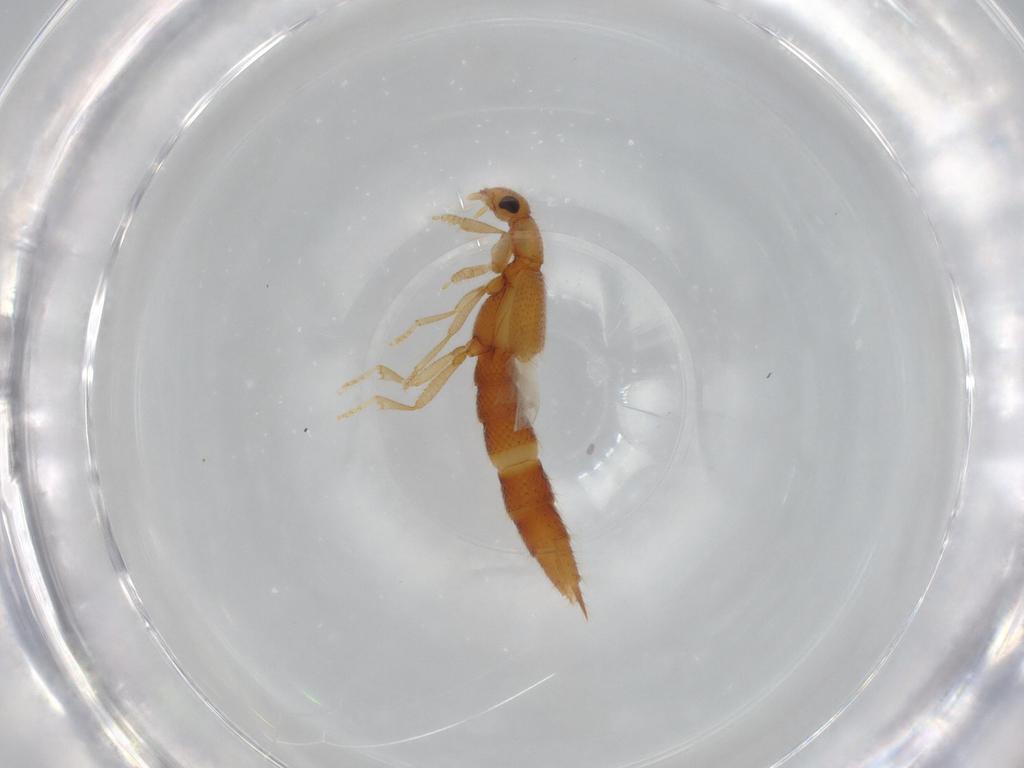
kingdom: Animalia
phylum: Arthropoda
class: Insecta
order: Coleoptera
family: Staphylinidae
